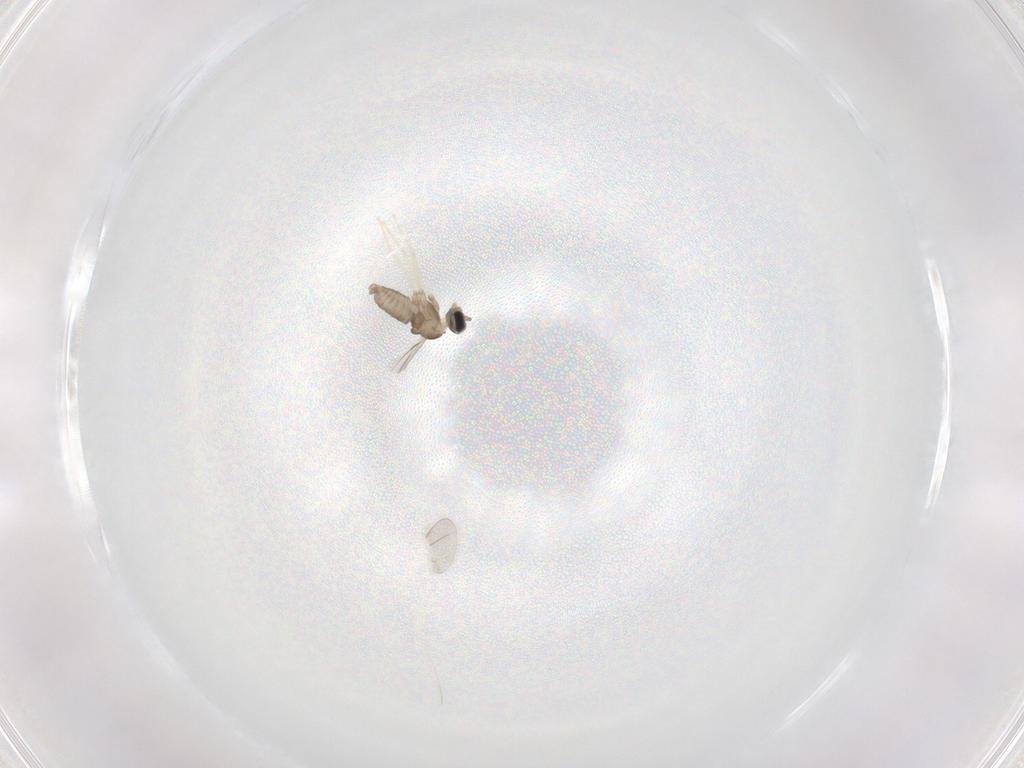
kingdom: Animalia
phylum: Arthropoda
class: Insecta
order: Diptera
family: Cecidomyiidae
